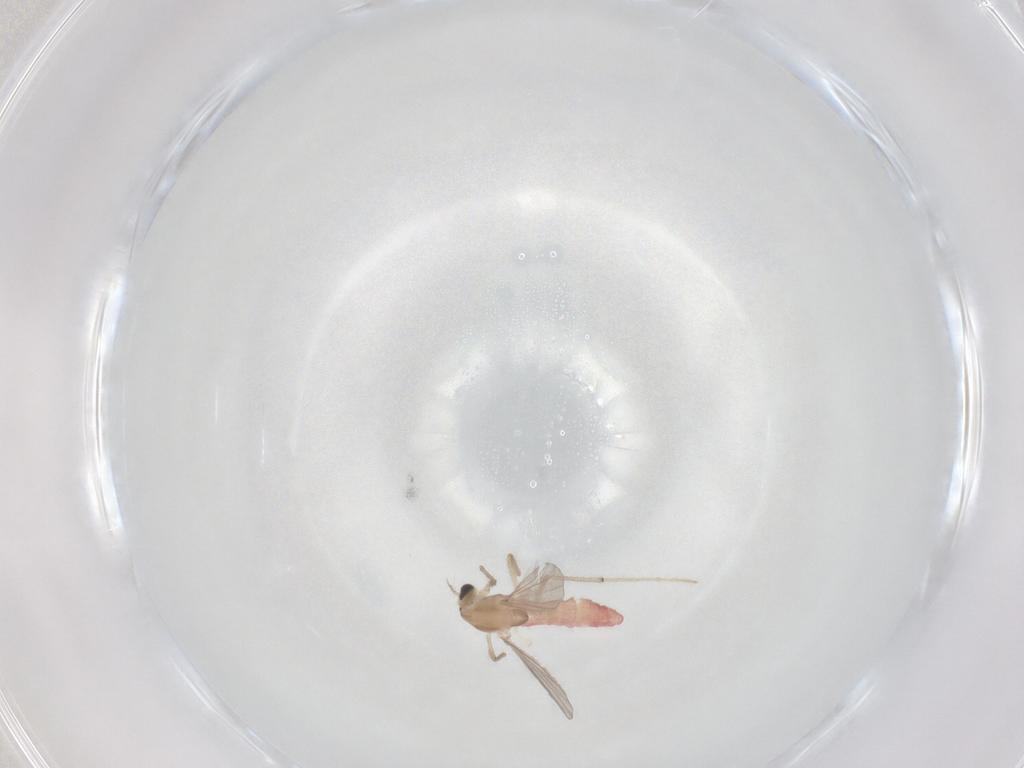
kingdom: Animalia
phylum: Arthropoda
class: Insecta
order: Diptera
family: Chironomidae
